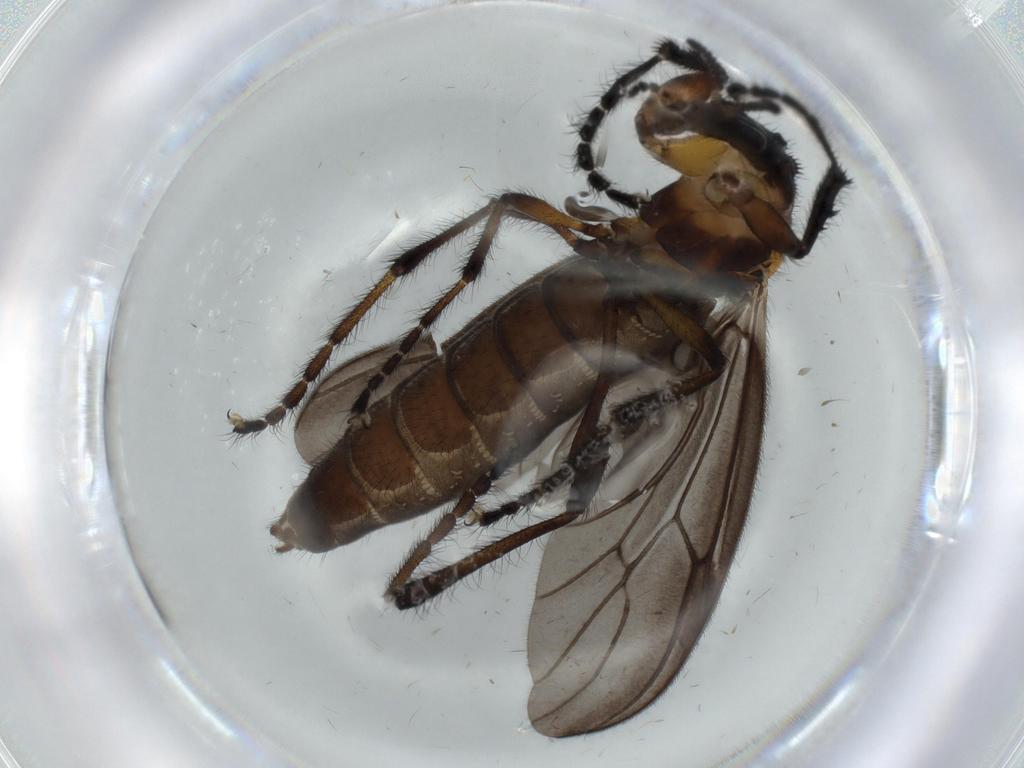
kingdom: Animalia
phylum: Arthropoda
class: Insecta
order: Diptera
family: Bibionidae
